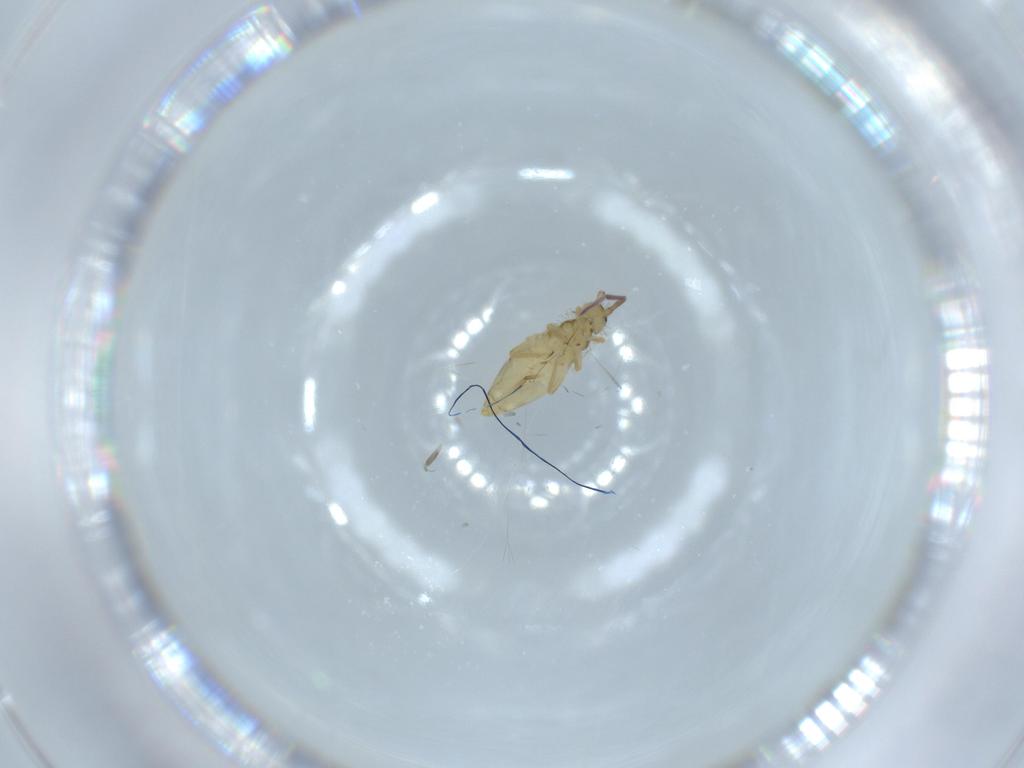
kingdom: Animalia
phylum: Arthropoda
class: Collembola
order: Entomobryomorpha
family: Entomobryidae
